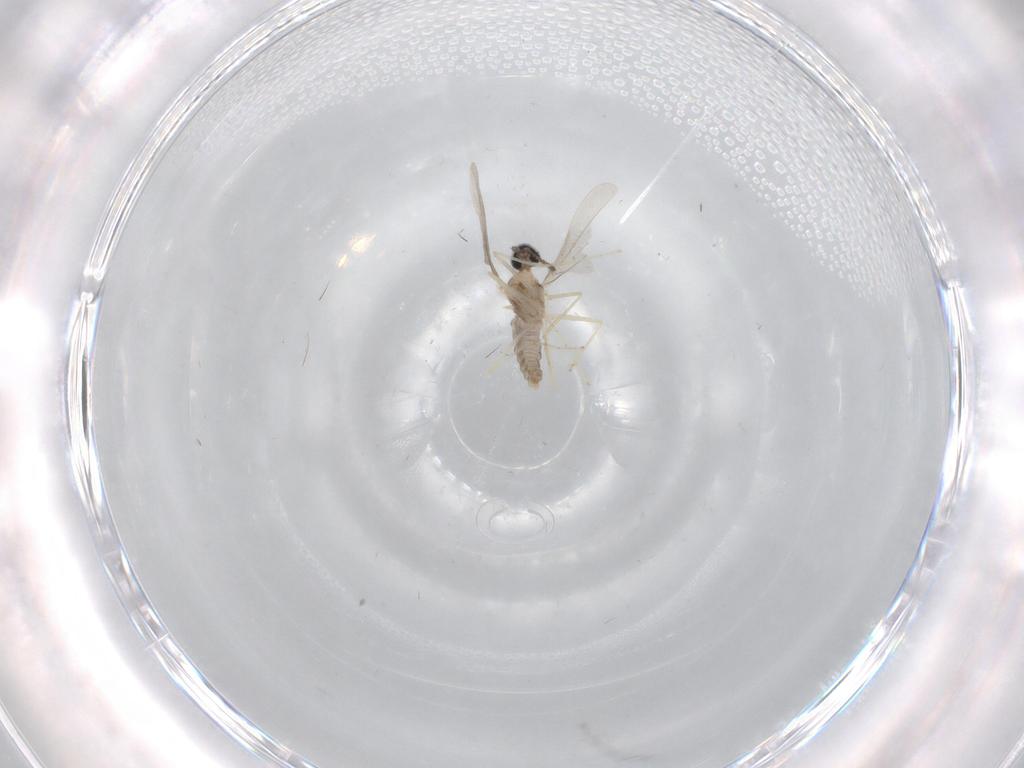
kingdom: Animalia
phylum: Arthropoda
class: Insecta
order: Diptera
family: Cecidomyiidae
